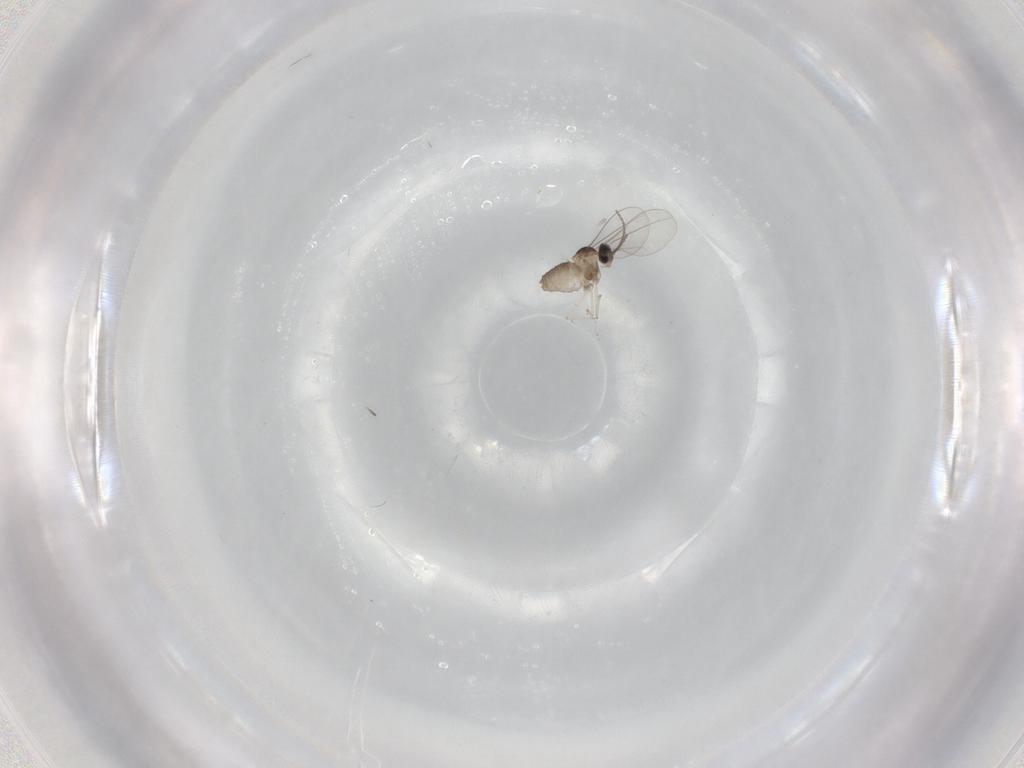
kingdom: Animalia
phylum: Arthropoda
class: Insecta
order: Diptera
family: Cecidomyiidae
